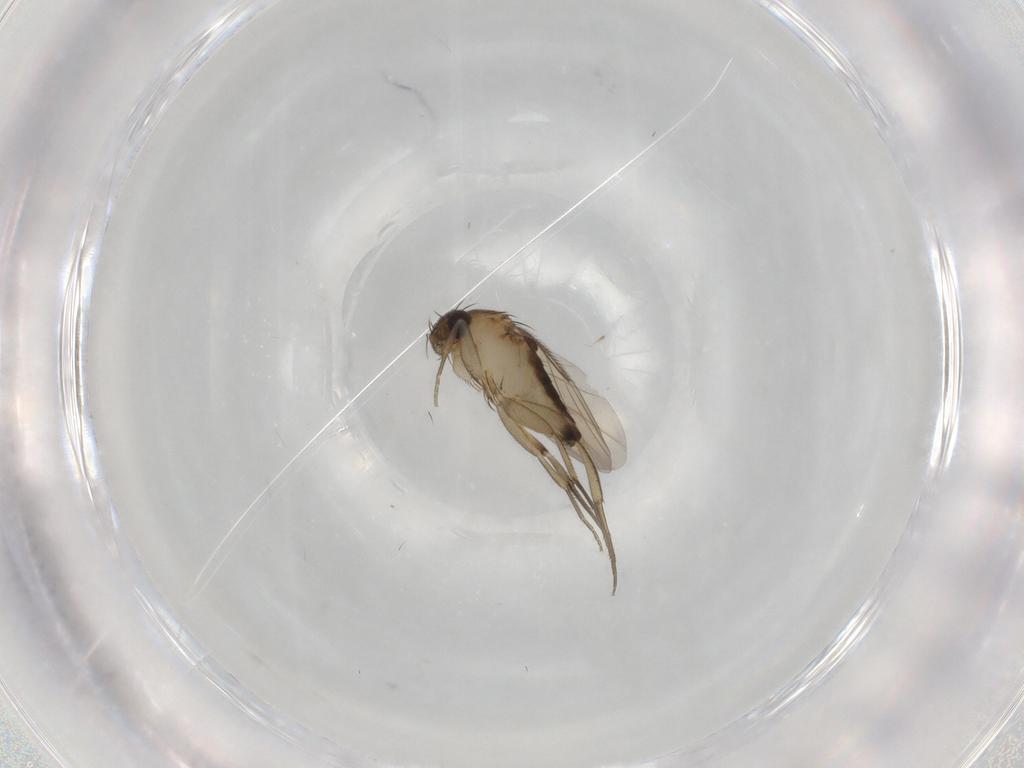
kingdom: Animalia
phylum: Arthropoda
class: Insecta
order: Diptera
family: Phoridae
